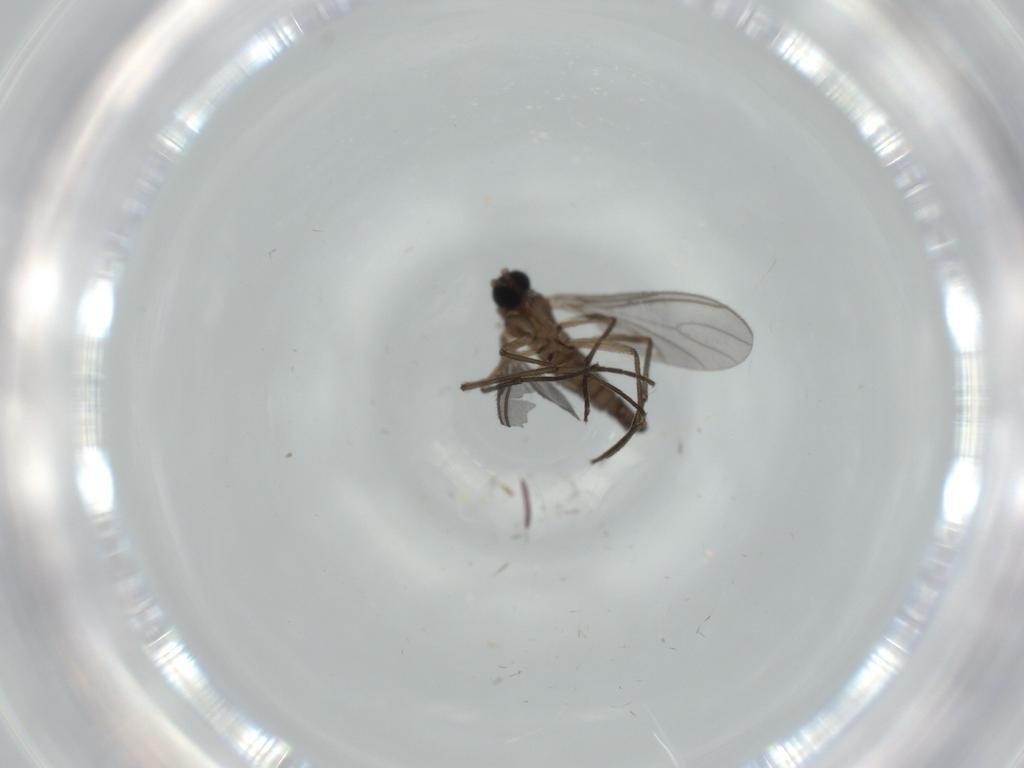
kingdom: Animalia
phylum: Arthropoda
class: Insecta
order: Diptera
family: Sciaridae
